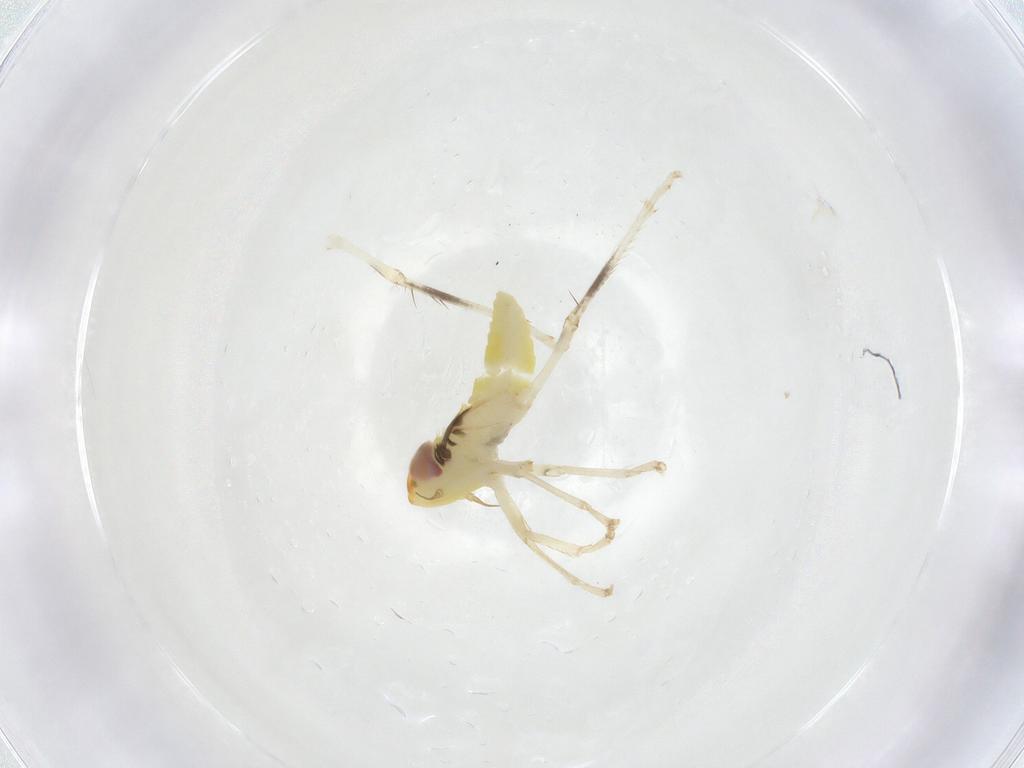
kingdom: Animalia
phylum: Arthropoda
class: Insecta
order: Hemiptera
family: Cicadellidae
